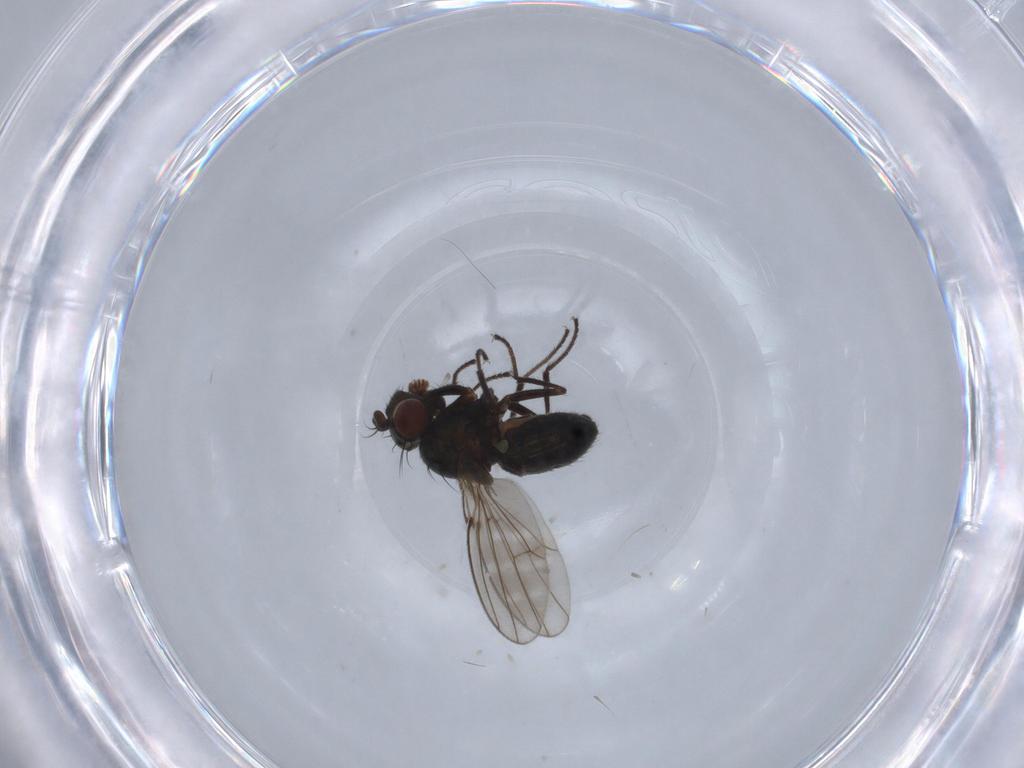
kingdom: Animalia
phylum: Arthropoda
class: Insecta
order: Diptera
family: Ephydridae
